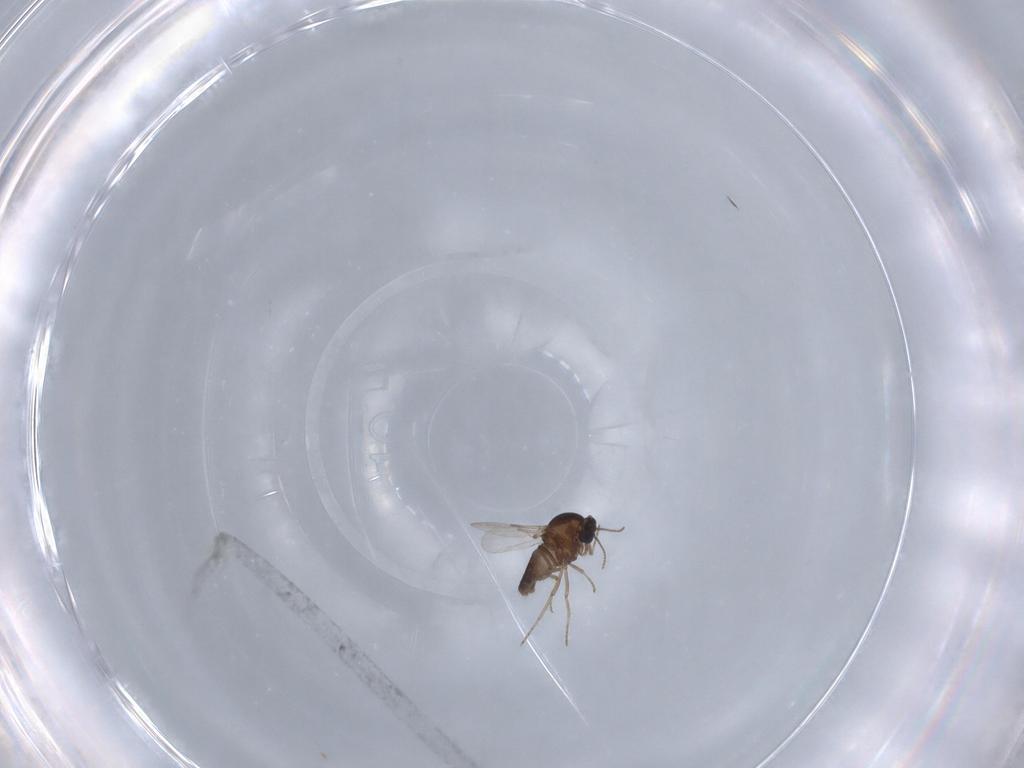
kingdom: Animalia
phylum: Arthropoda
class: Insecta
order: Diptera
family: Ceratopogonidae
